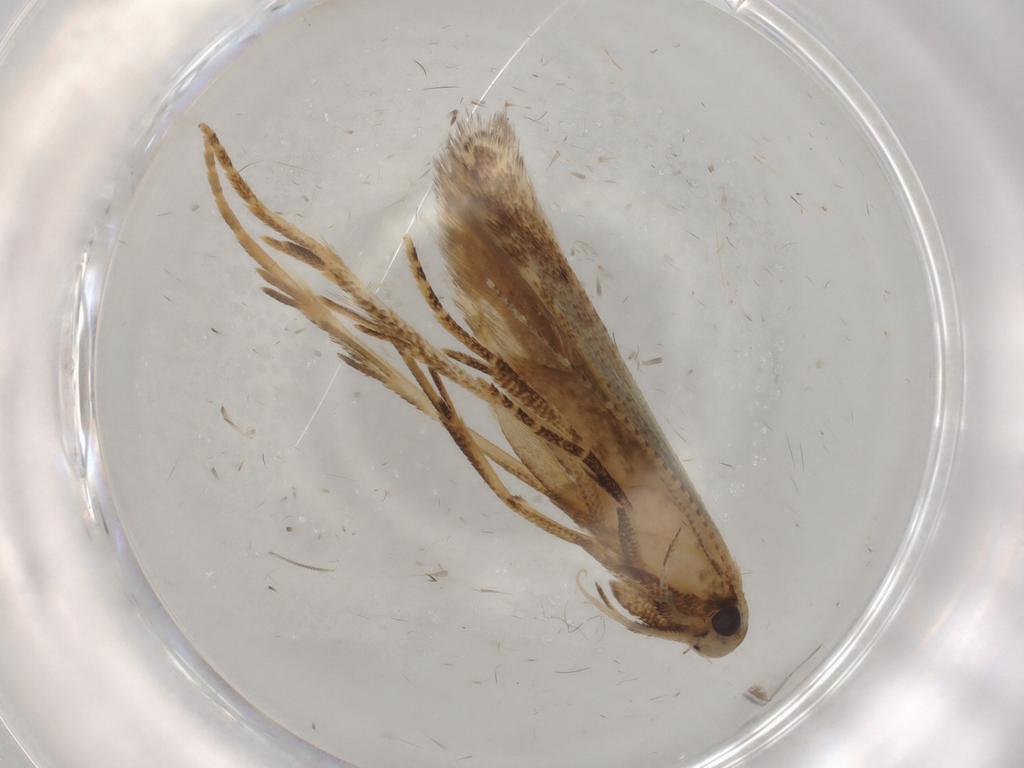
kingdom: Animalia
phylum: Arthropoda
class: Insecta
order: Lepidoptera
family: Gelechiidae
